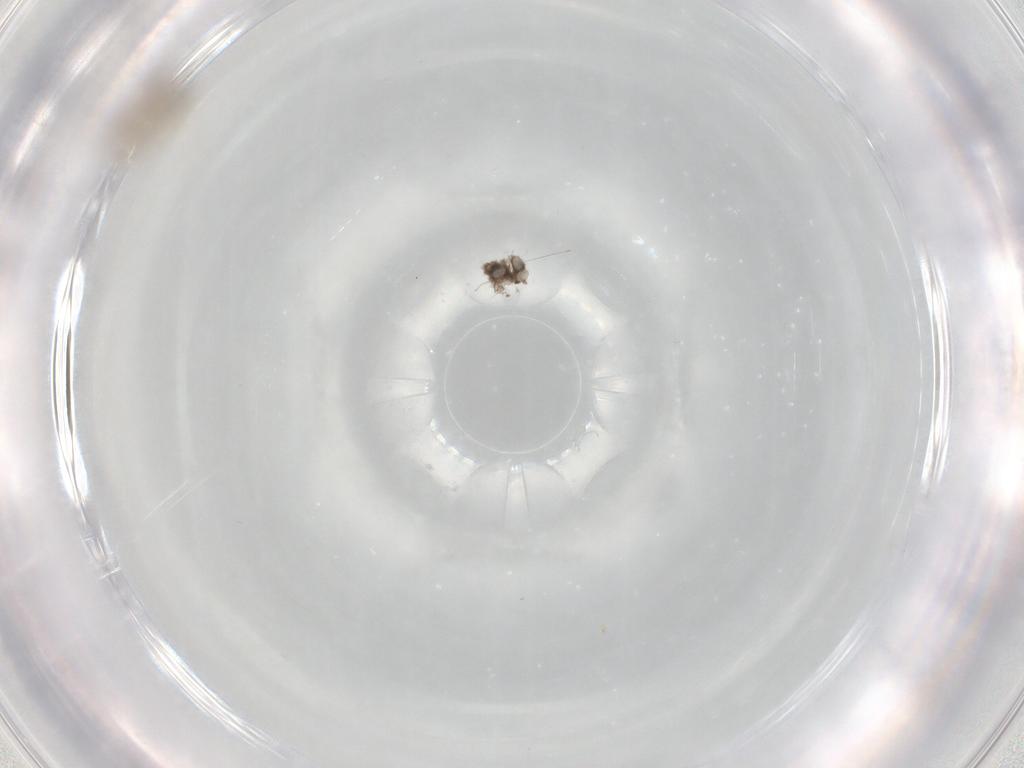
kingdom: Animalia
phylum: Arthropoda
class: Insecta
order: Diptera
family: Cecidomyiidae
